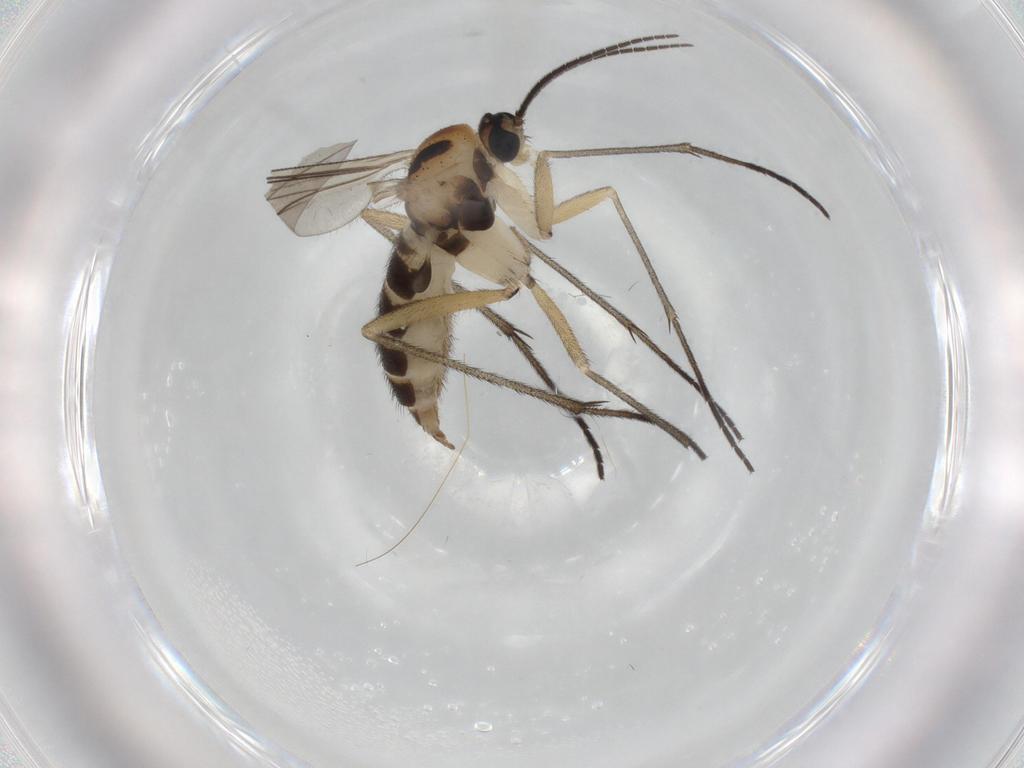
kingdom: Animalia
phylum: Arthropoda
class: Insecta
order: Diptera
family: Sciaridae
